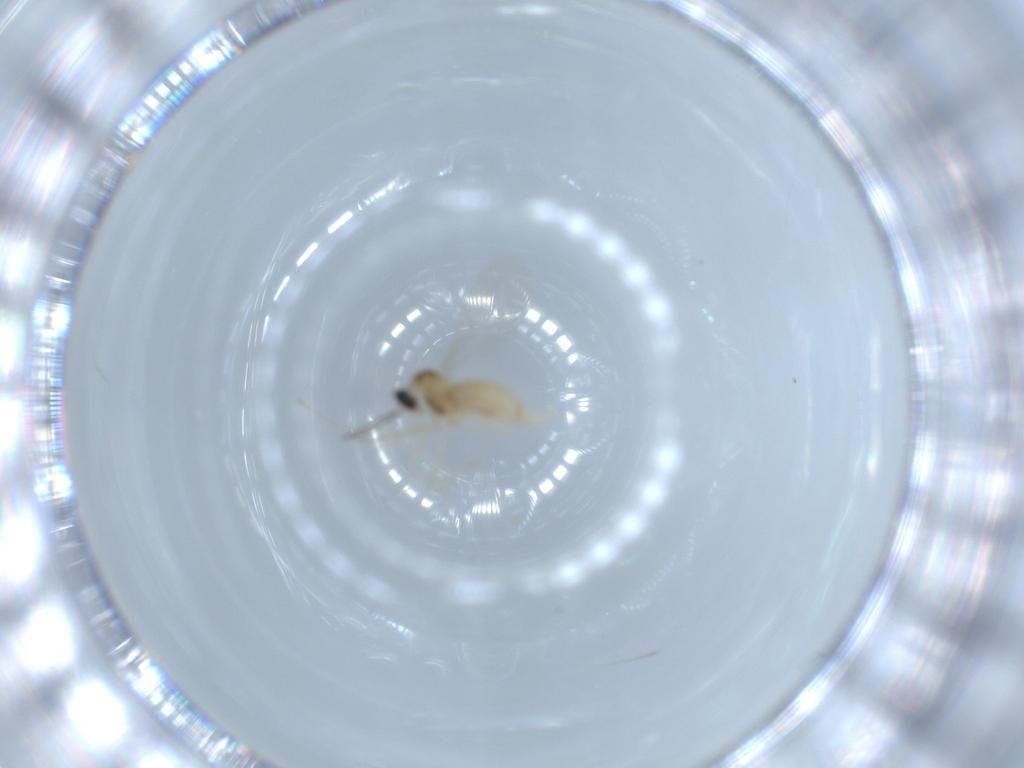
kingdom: Animalia
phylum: Arthropoda
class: Insecta
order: Diptera
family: Cecidomyiidae
